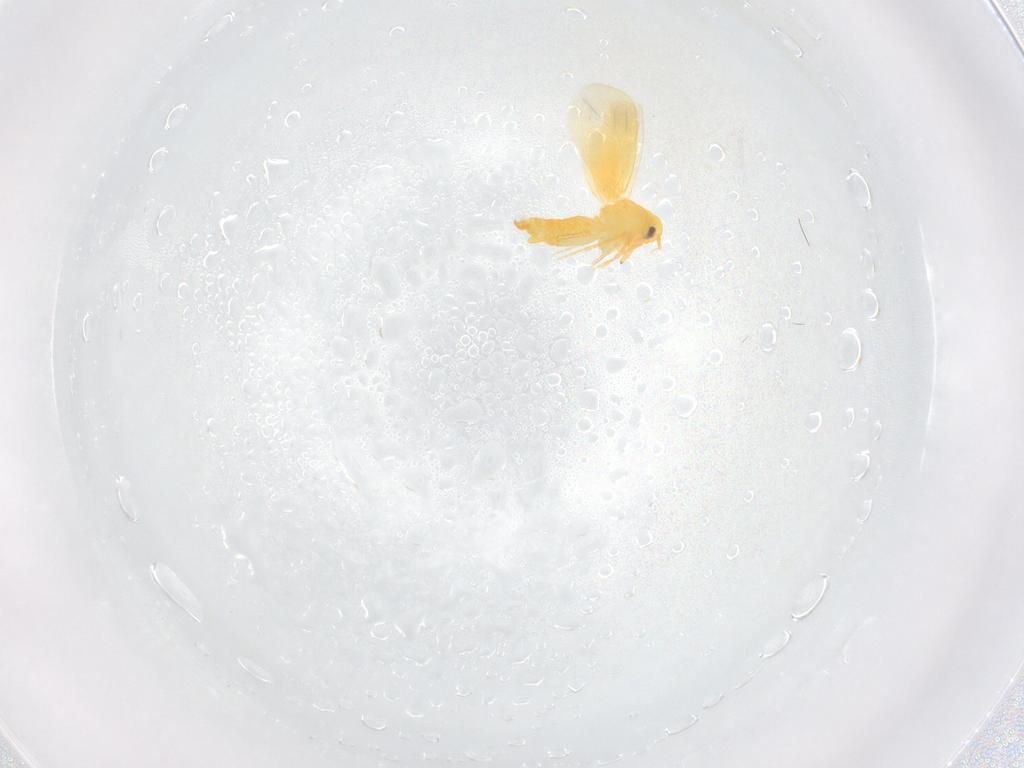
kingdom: Animalia
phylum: Arthropoda
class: Insecta
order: Hemiptera
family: Aleyrodidae
